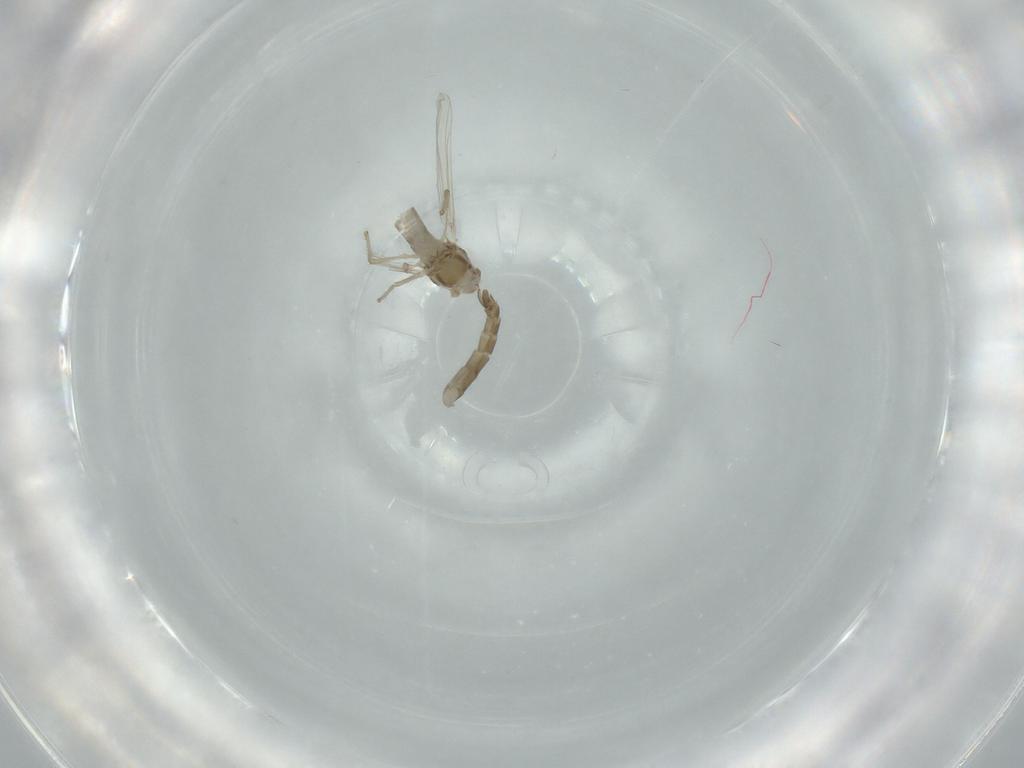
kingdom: Animalia
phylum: Arthropoda
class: Insecta
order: Diptera
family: Chironomidae
